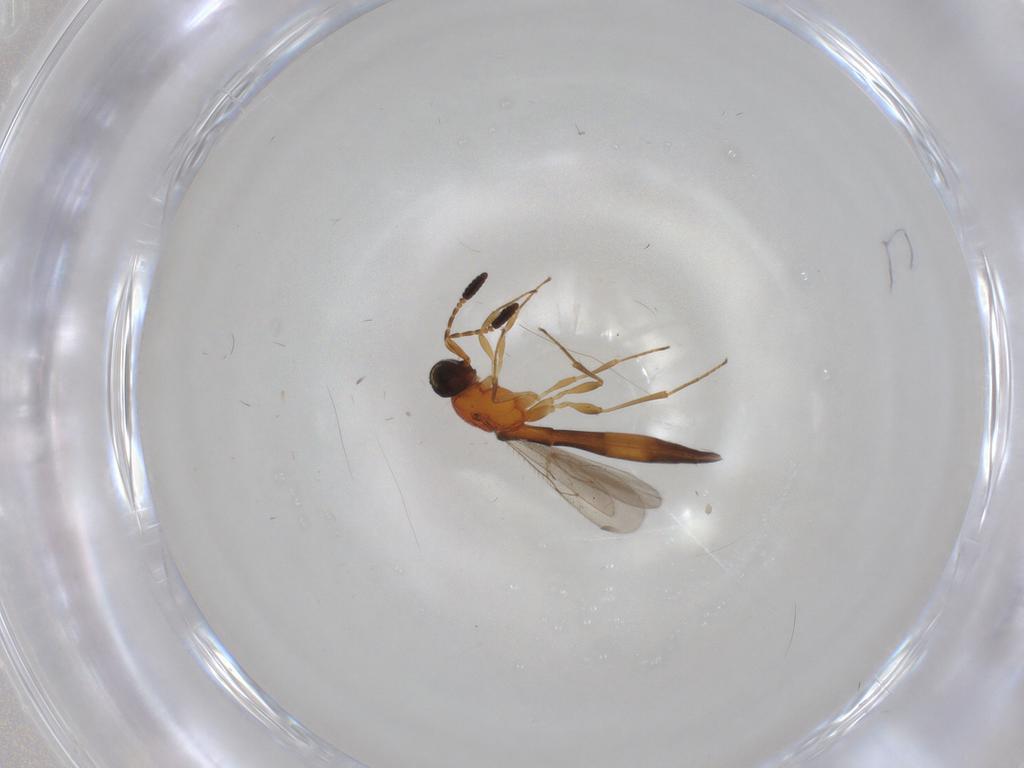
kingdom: Animalia
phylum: Arthropoda
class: Insecta
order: Hymenoptera
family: Scelionidae
